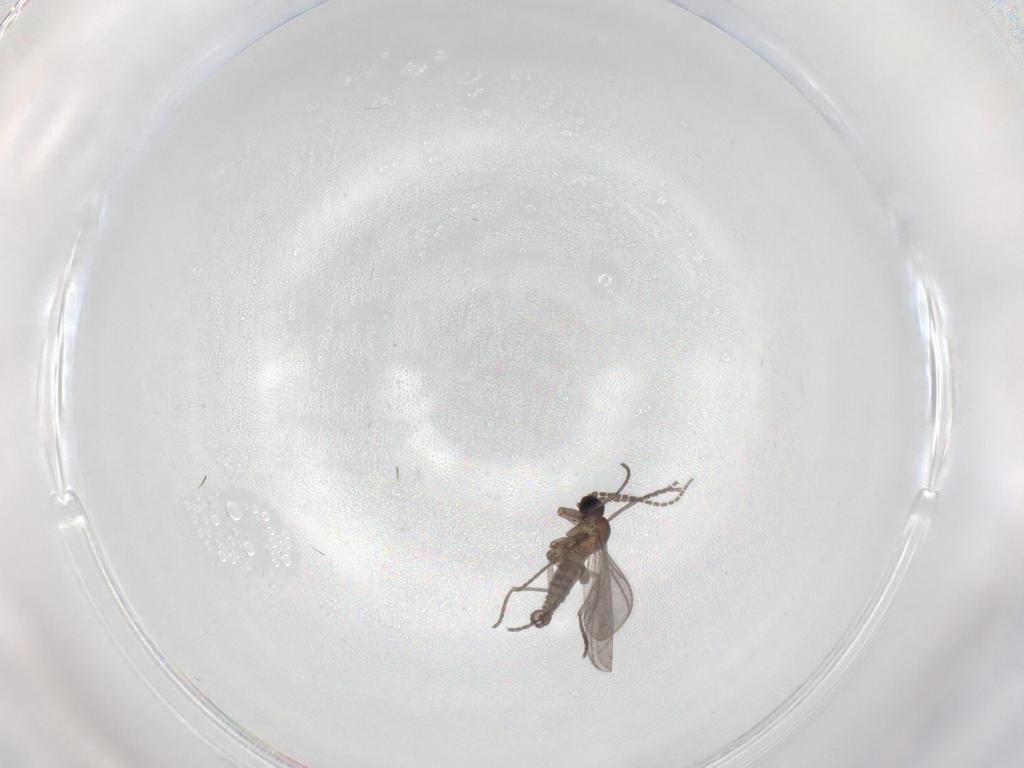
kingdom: Animalia
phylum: Arthropoda
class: Insecta
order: Diptera
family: Sciaridae
